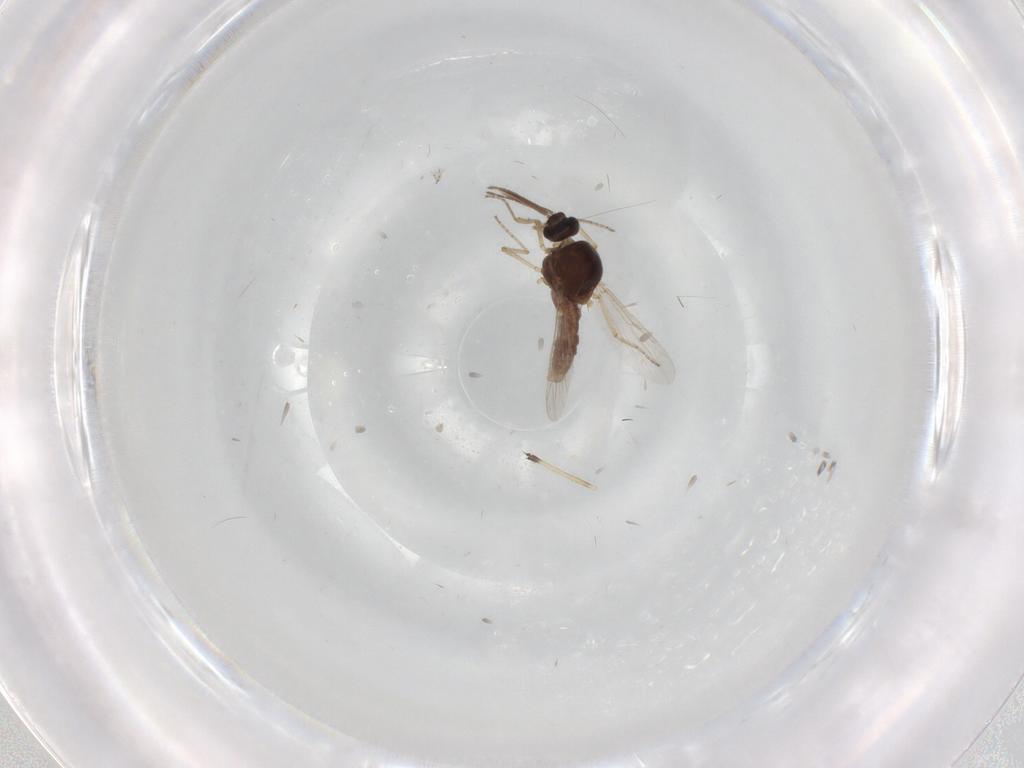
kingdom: Animalia
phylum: Arthropoda
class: Insecta
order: Diptera
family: Ceratopogonidae
